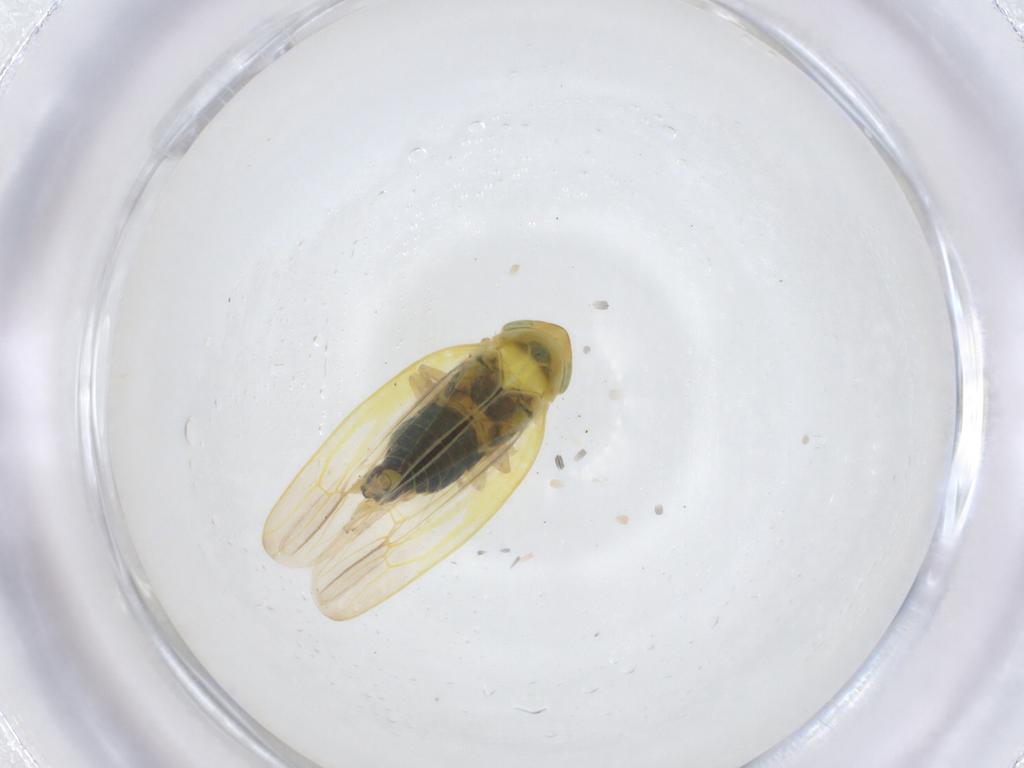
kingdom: Animalia
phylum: Arthropoda
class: Insecta
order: Hemiptera
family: Cicadellidae
